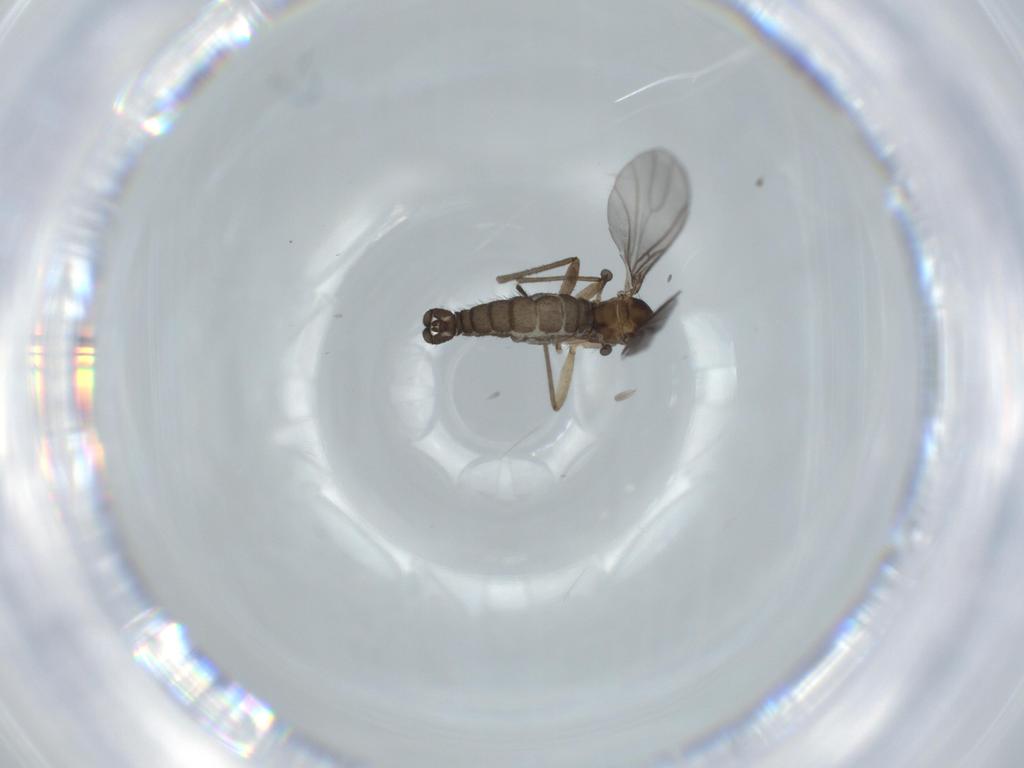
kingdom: Animalia
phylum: Arthropoda
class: Insecta
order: Diptera
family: Sciaridae
